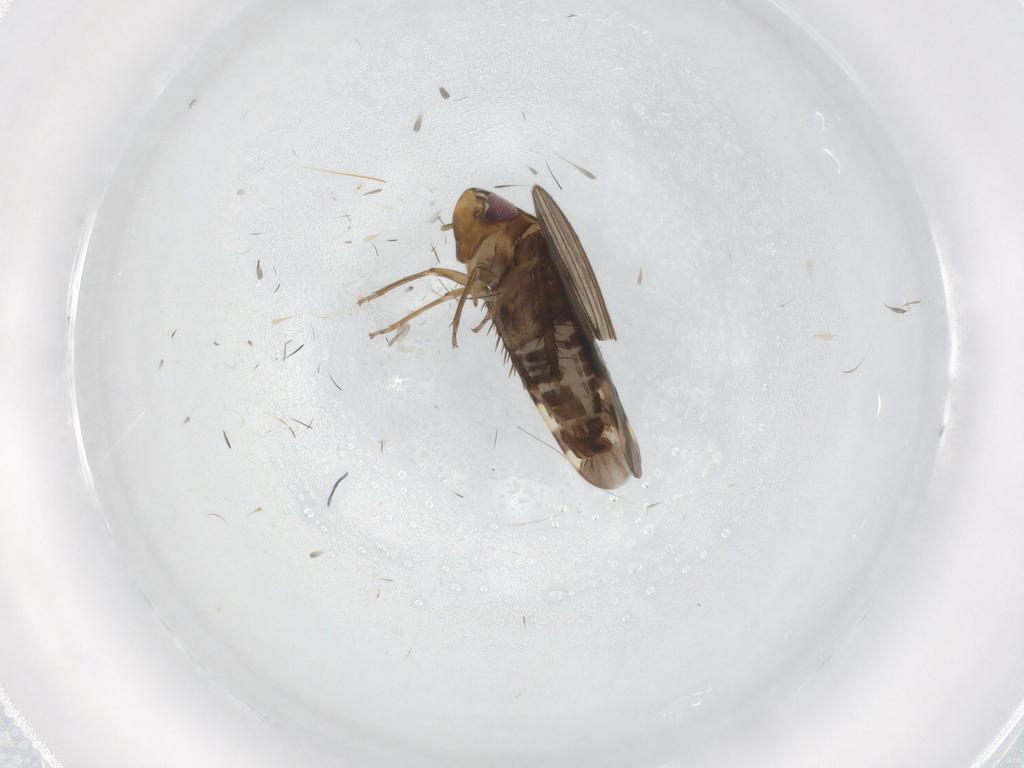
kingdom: Animalia
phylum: Arthropoda
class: Insecta
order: Hemiptera
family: Cicadellidae
